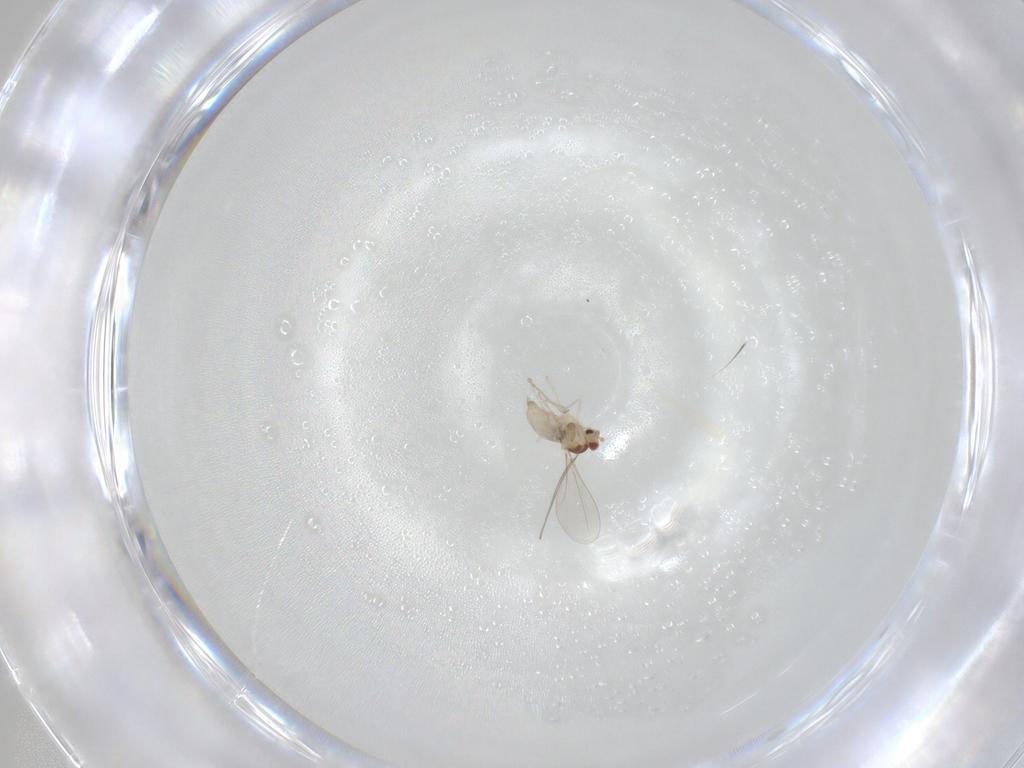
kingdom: Animalia
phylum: Arthropoda
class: Insecta
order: Diptera
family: Cecidomyiidae
